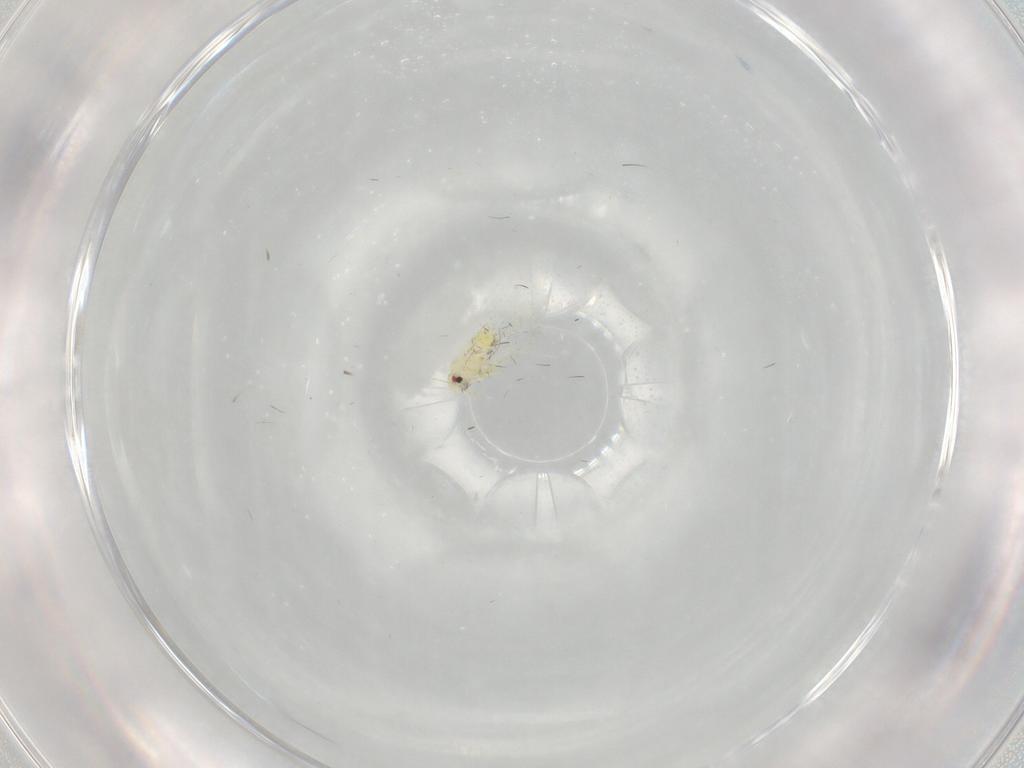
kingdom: Animalia
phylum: Arthropoda
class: Insecta
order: Hemiptera
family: Aleyrodidae
